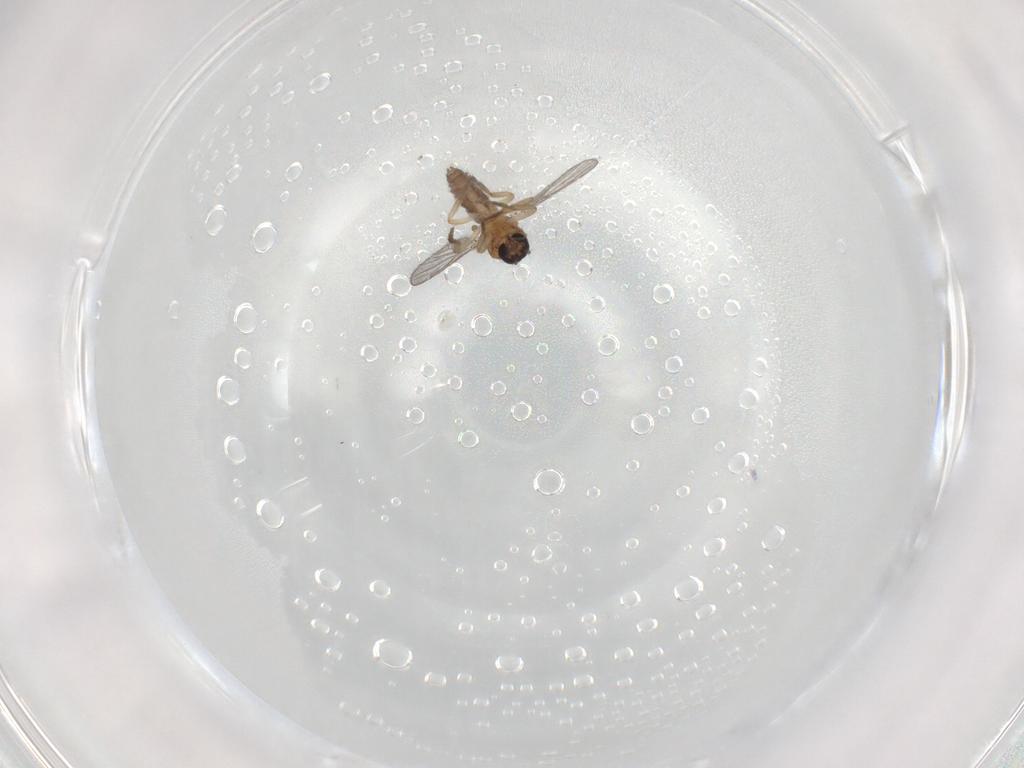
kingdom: Animalia
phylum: Arthropoda
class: Insecta
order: Diptera
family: Ceratopogonidae
